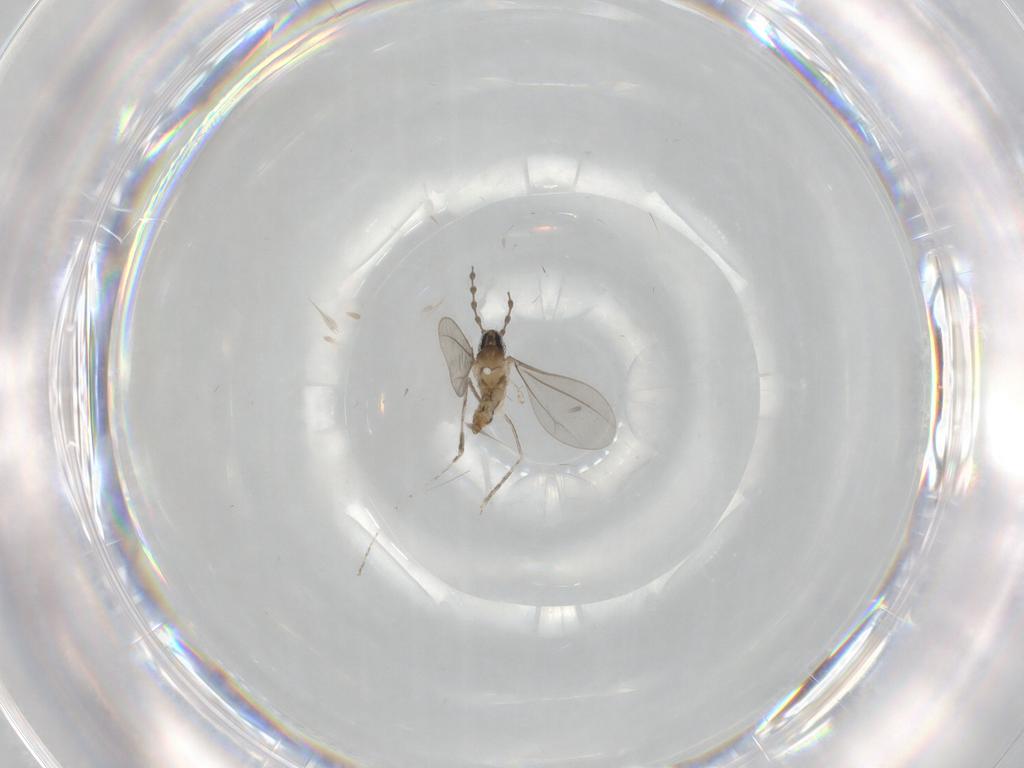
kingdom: Animalia
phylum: Arthropoda
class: Insecta
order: Diptera
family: Cecidomyiidae
